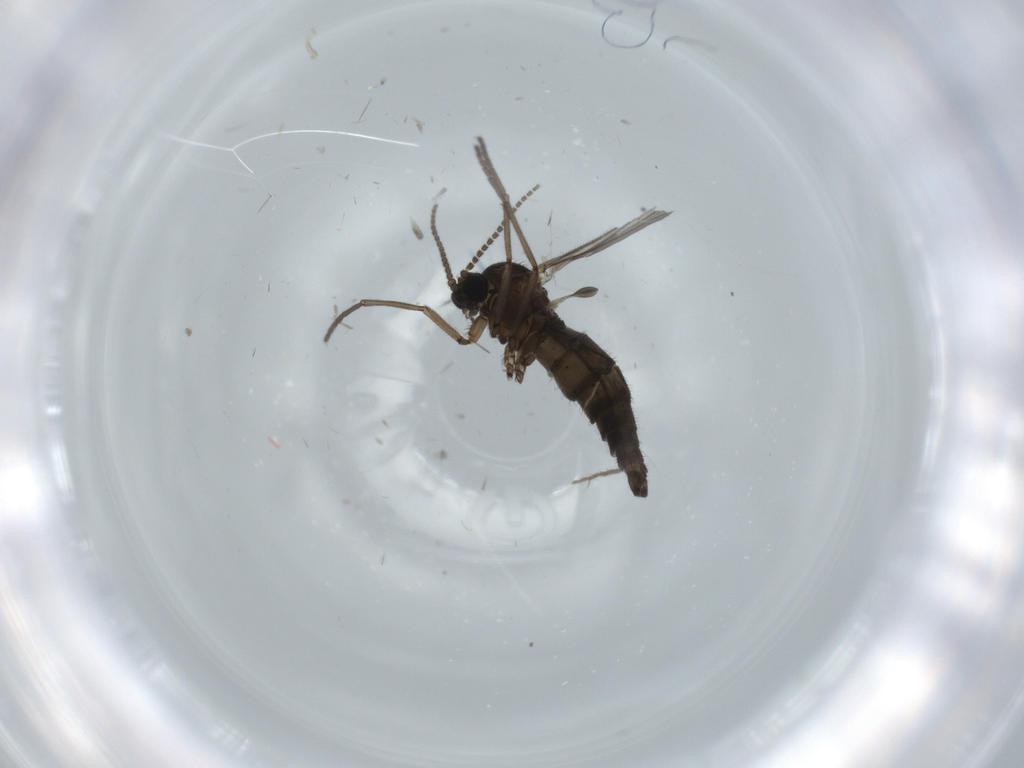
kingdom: Animalia
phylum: Arthropoda
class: Insecta
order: Diptera
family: Sciaridae
